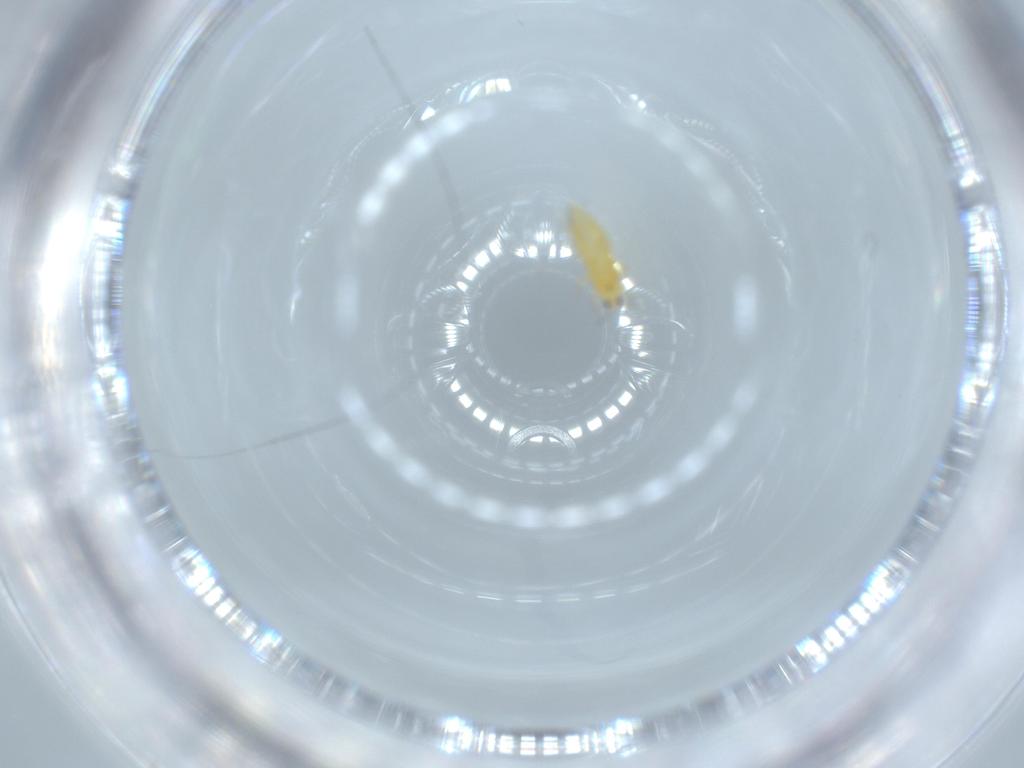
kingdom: Animalia
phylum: Arthropoda
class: Insecta
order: Thysanoptera
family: Thripidae
